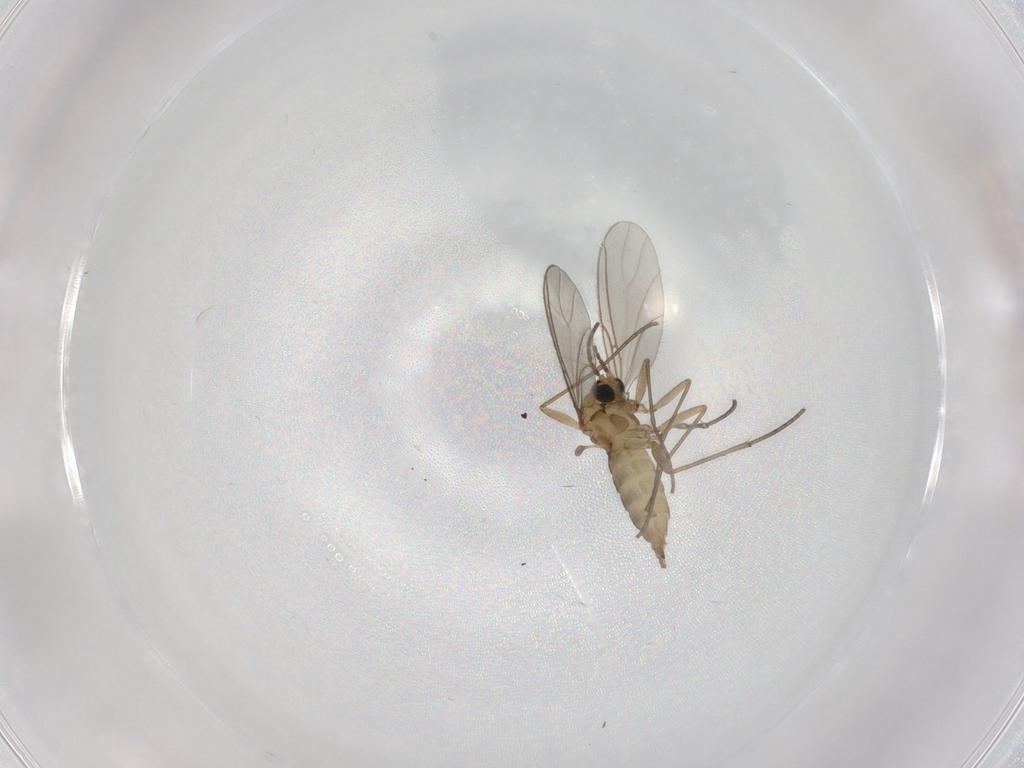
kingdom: Animalia
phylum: Arthropoda
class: Insecta
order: Diptera
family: Sciaridae
